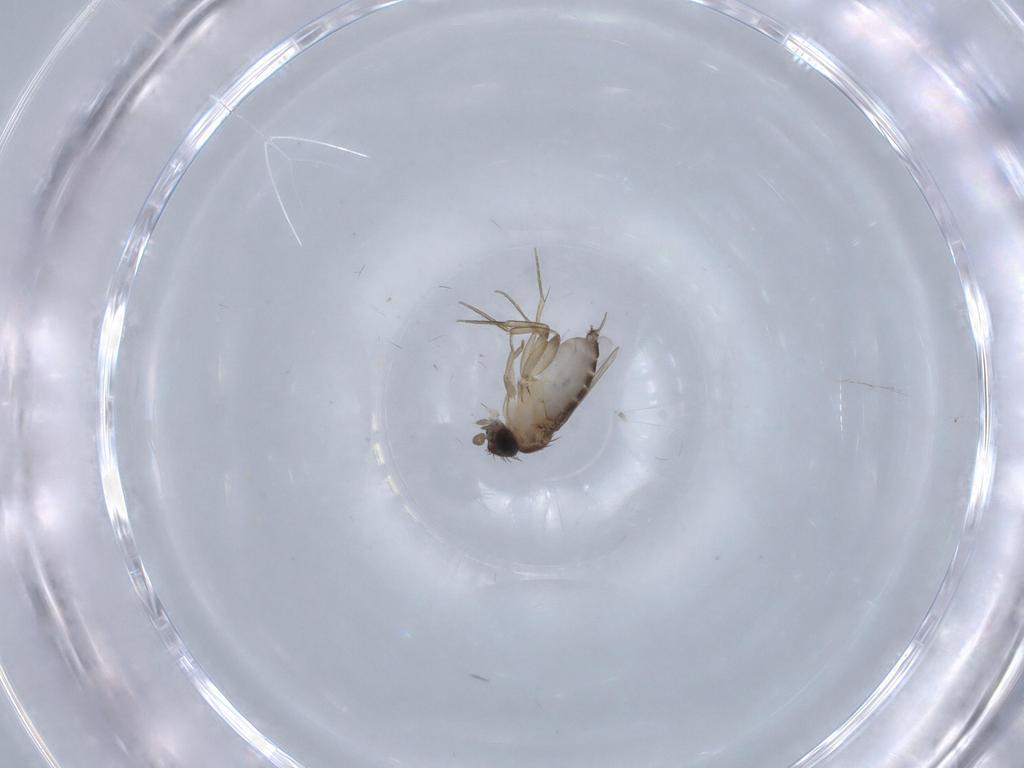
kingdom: Animalia
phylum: Arthropoda
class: Insecta
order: Diptera
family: Phoridae
